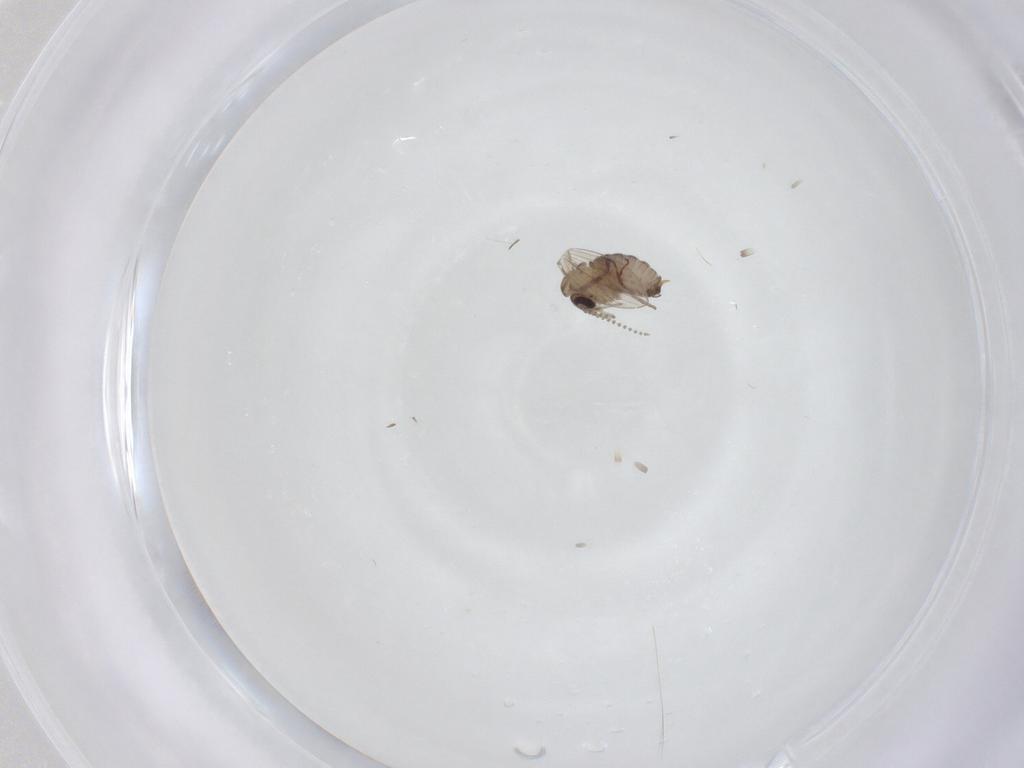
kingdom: Animalia
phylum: Arthropoda
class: Insecta
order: Diptera
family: Psychodidae
